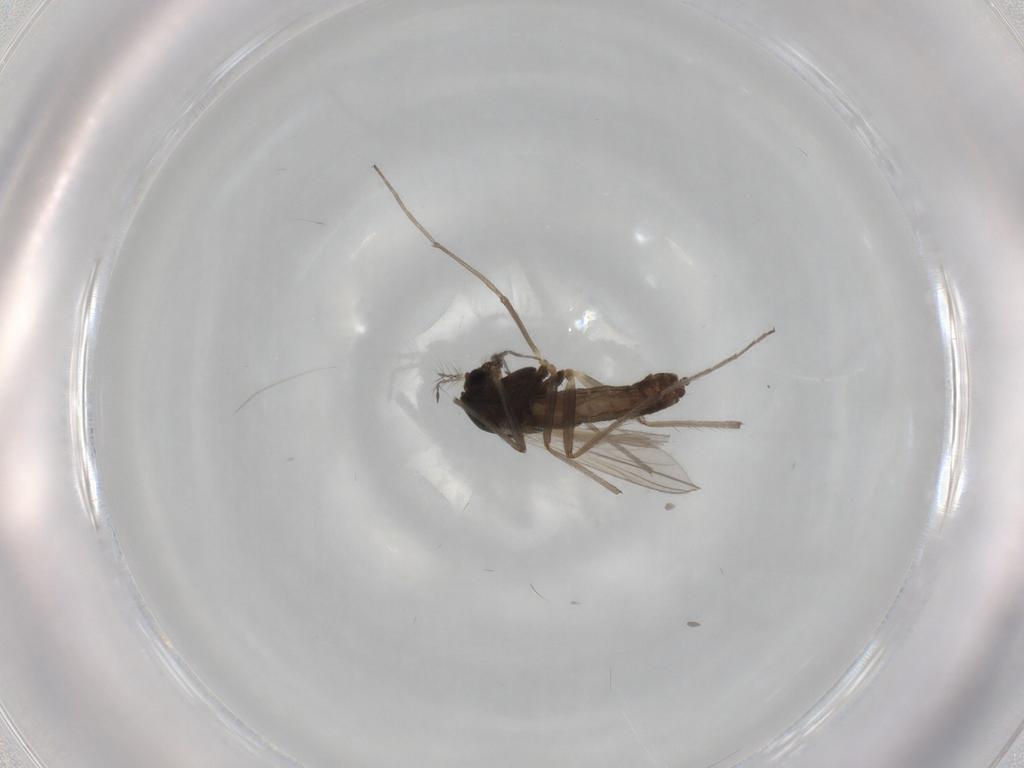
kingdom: Animalia
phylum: Arthropoda
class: Insecta
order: Diptera
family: Chironomidae
